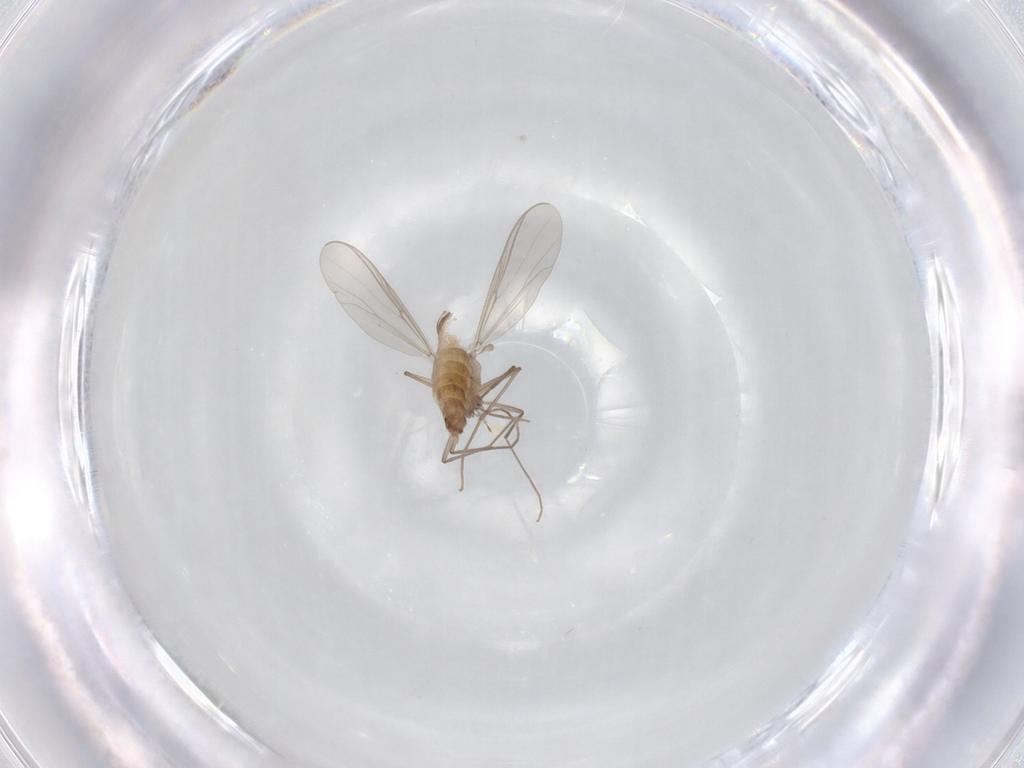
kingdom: Animalia
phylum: Arthropoda
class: Insecta
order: Diptera
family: Chironomidae
